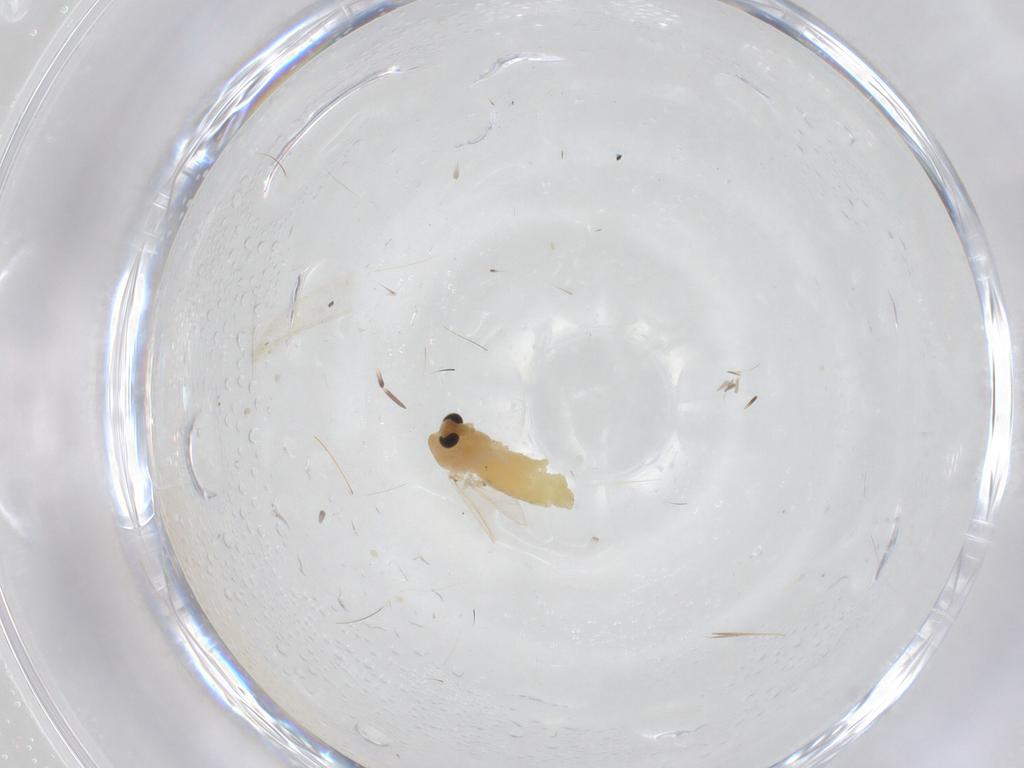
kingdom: Animalia
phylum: Arthropoda
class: Insecta
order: Diptera
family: Chironomidae
